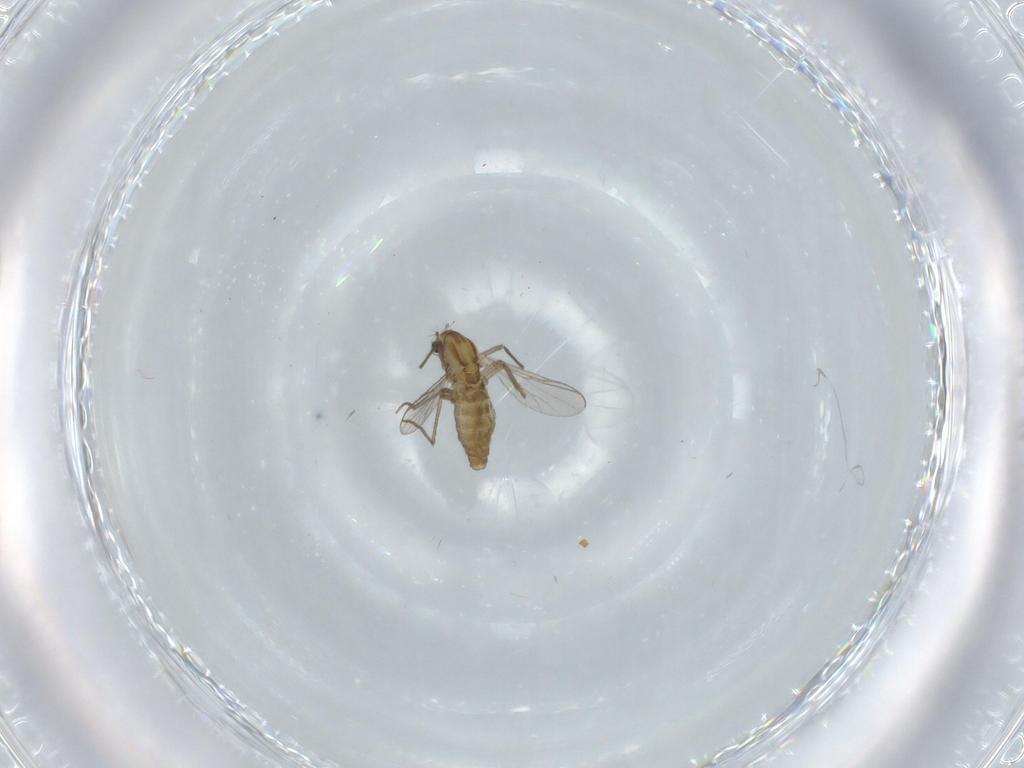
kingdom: Animalia
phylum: Arthropoda
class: Insecta
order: Diptera
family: Chironomidae
